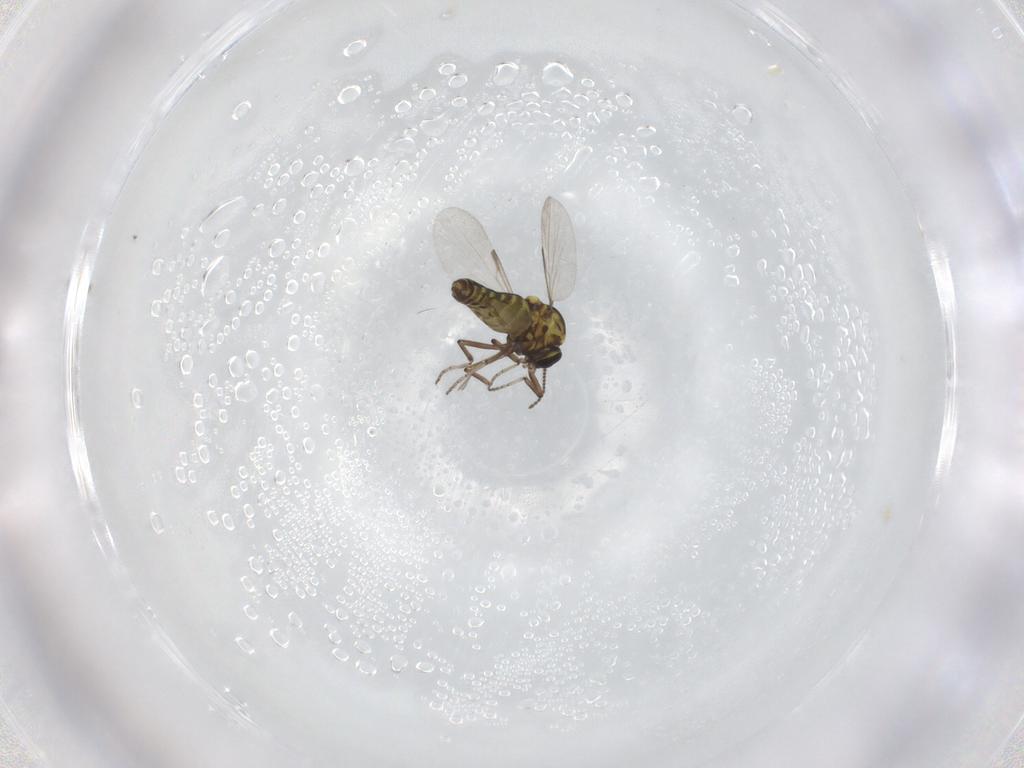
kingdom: Animalia
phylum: Arthropoda
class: Insecta
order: Diptera
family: Ceratopogonidae
